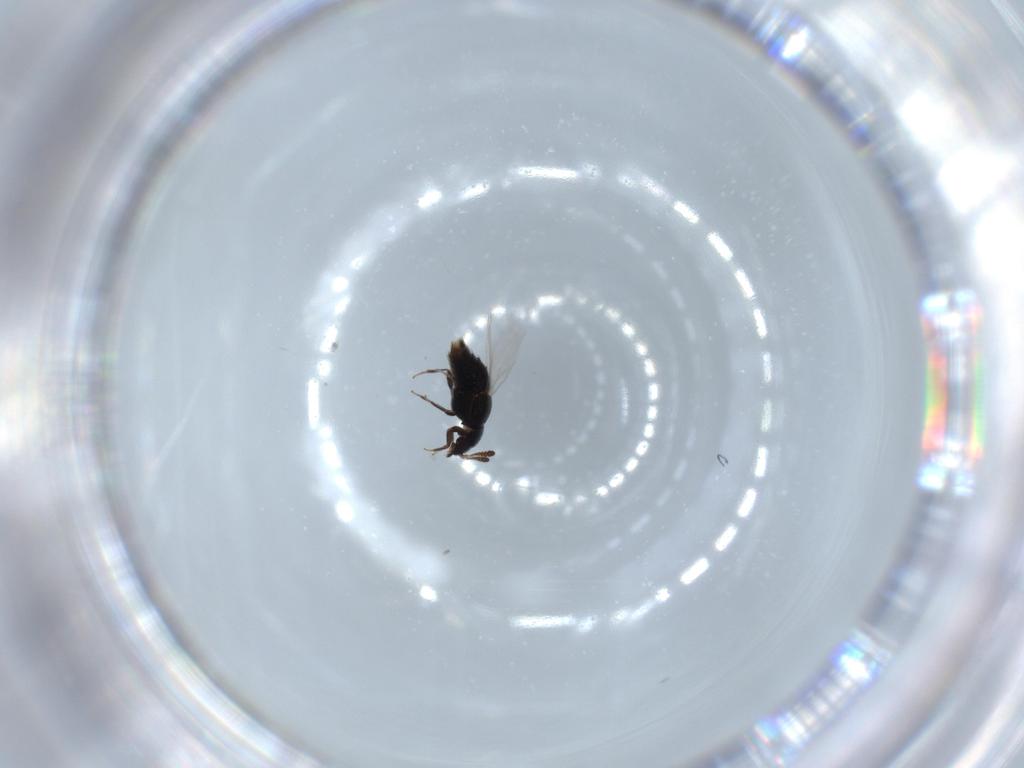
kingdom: Animalia
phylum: Arthropoda
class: Insecta
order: Coleoptera
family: Staphylinidae
